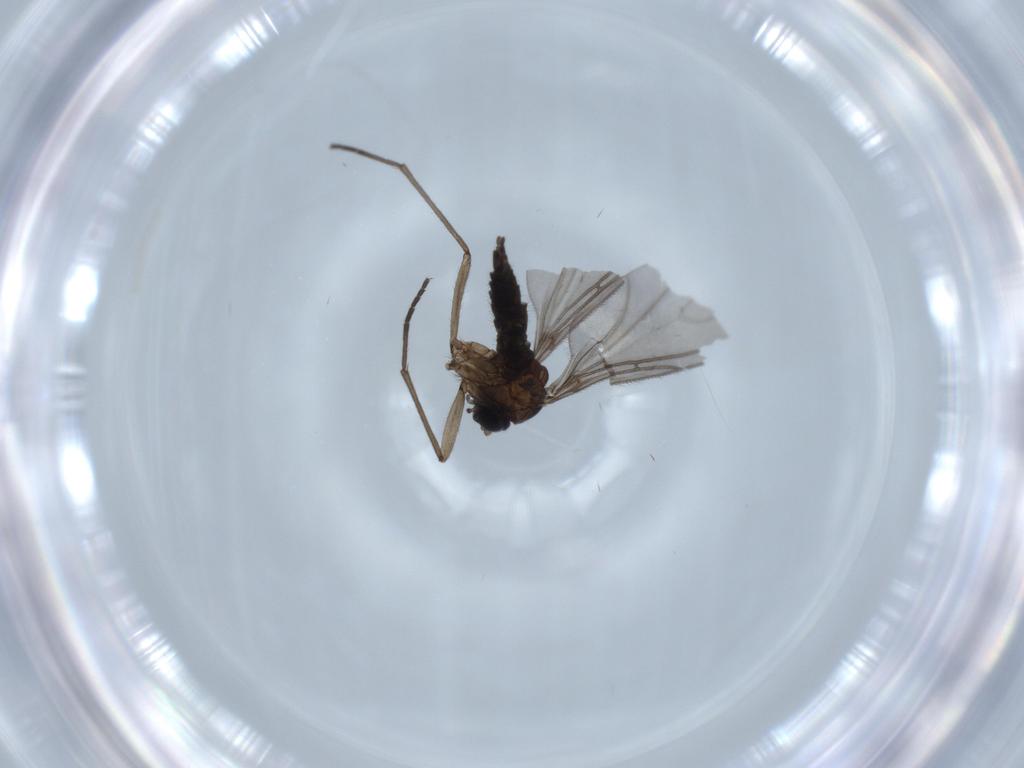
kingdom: Animalia
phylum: Arthropoda
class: Insecta
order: Diptera
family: Sciaridae
